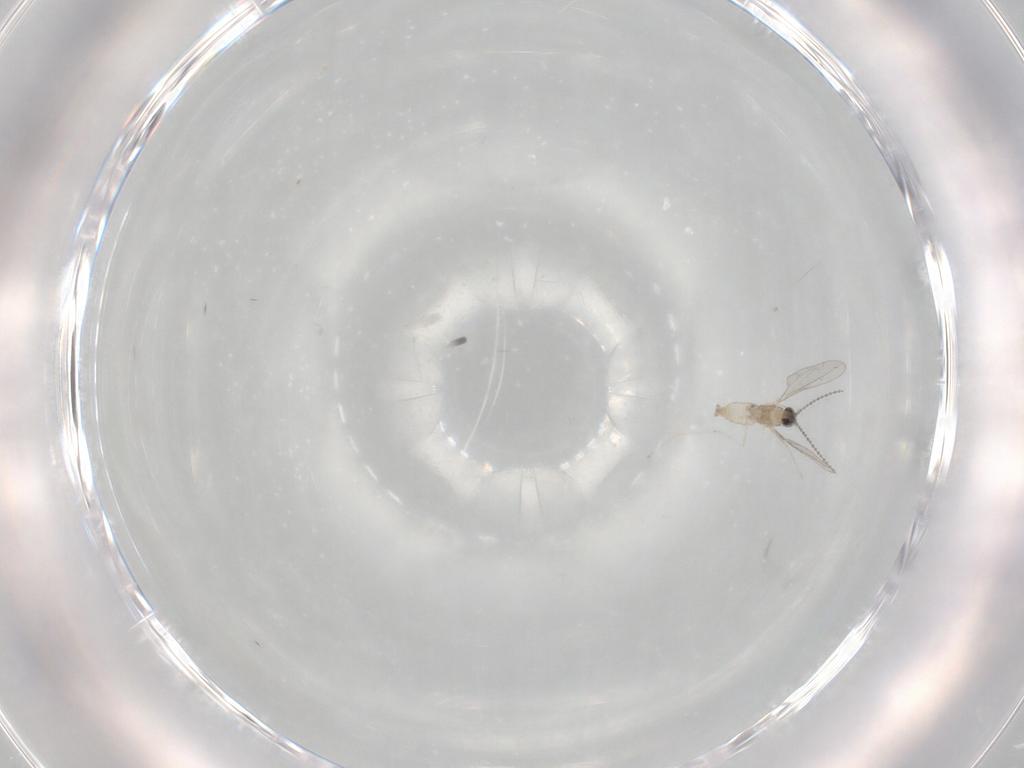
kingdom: Animalia
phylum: Arthropoda
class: Insecta
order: Diptera
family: Cecidomyiidae
